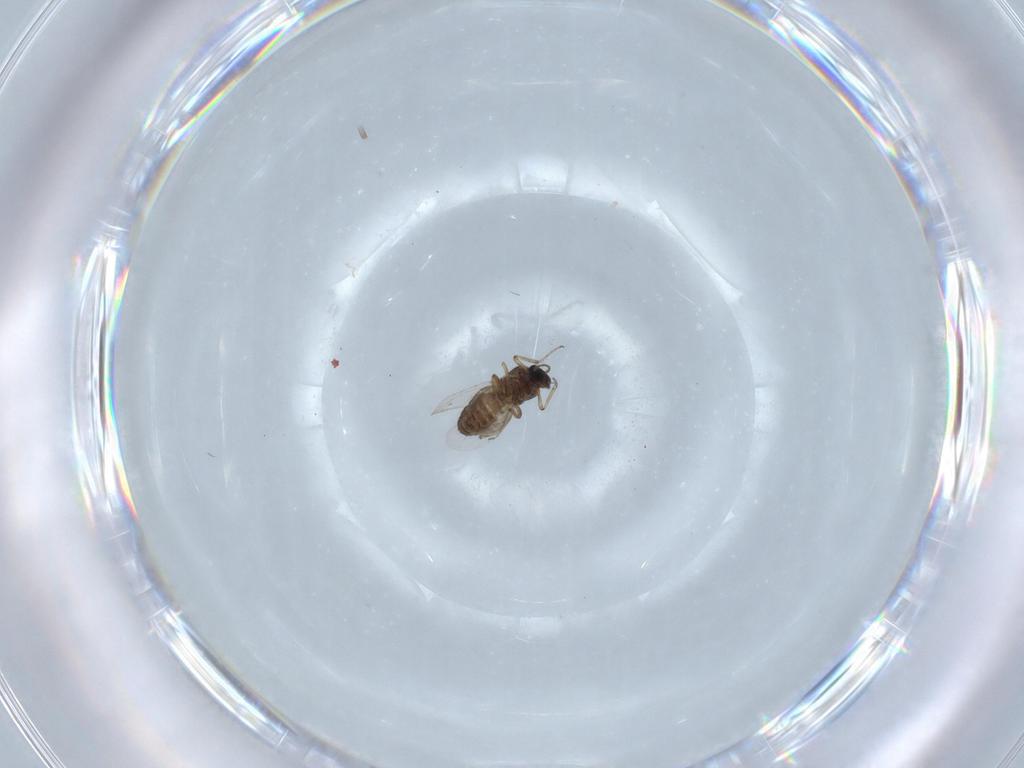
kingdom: Animalia
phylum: Arthropoda
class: Insecta
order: Diptera
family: Ceratopogonidae
